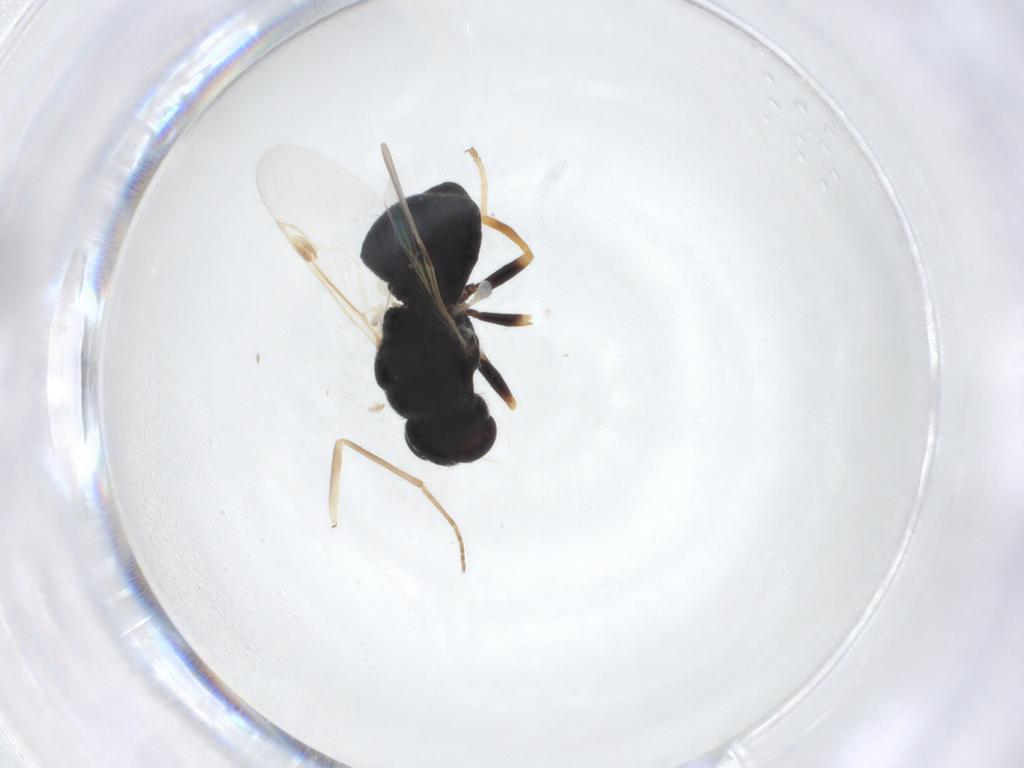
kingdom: Animalia
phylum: Arthropoda
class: Insecta
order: Diptera
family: Stratiomyidae
